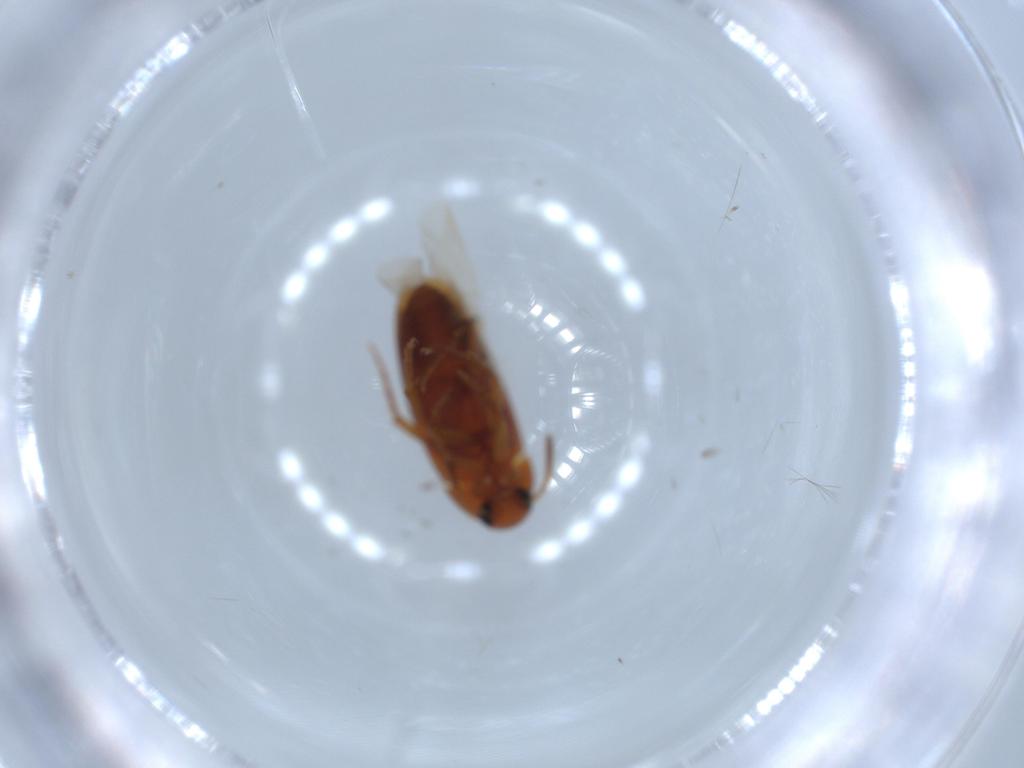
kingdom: Animalia
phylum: Arthropoda
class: Insecta
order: Coleoptera
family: Scraptiidae
